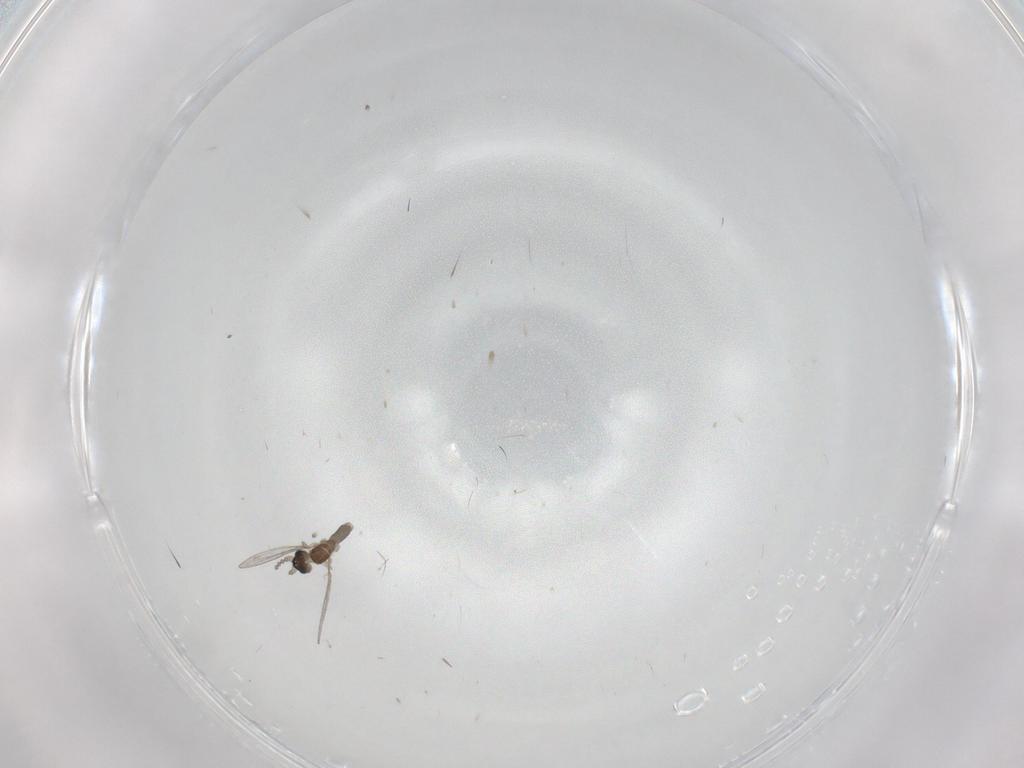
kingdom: Animalia
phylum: Arthropoda
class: Insecta
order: Diptera
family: Cecidomyiidae
